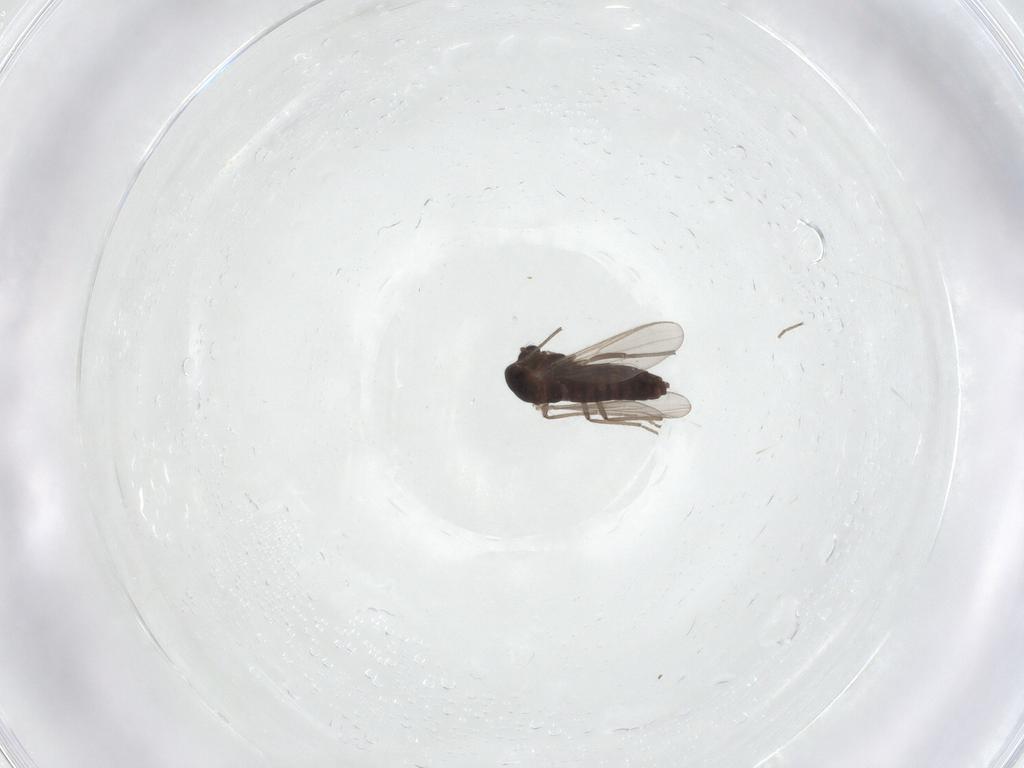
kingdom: Animalia
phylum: Arthropoda
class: Insecta
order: Diptera
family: Chironomidae
